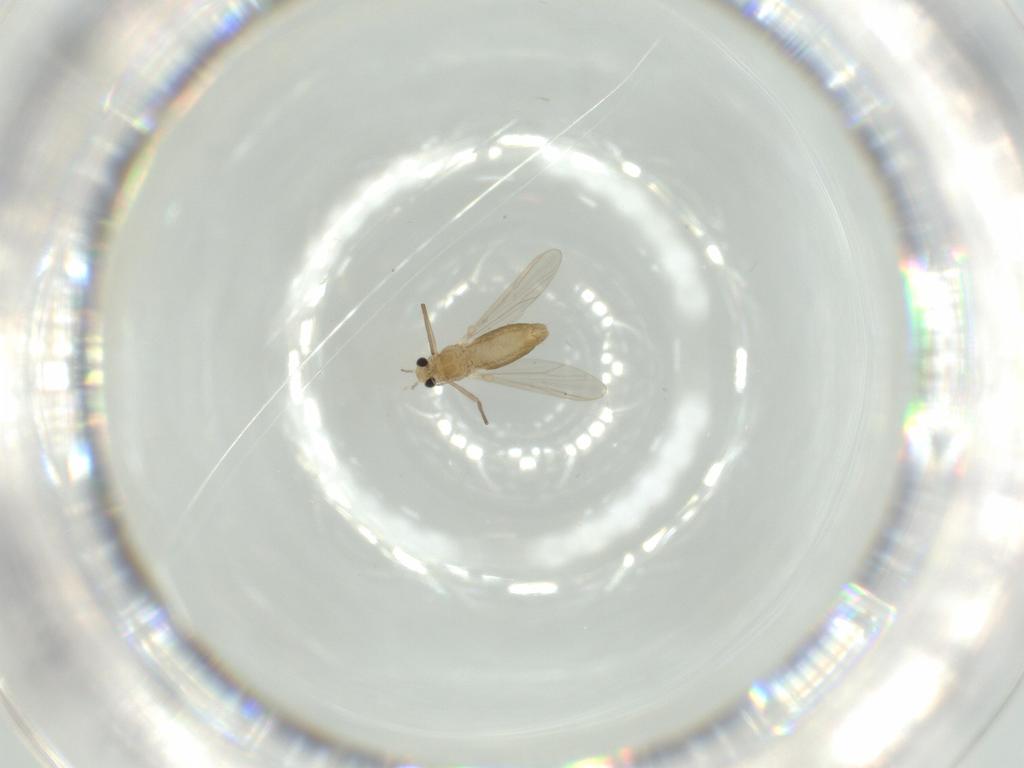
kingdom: Animalia
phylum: Arthropoda
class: Insecta
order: Diptera
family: Chironomidae
